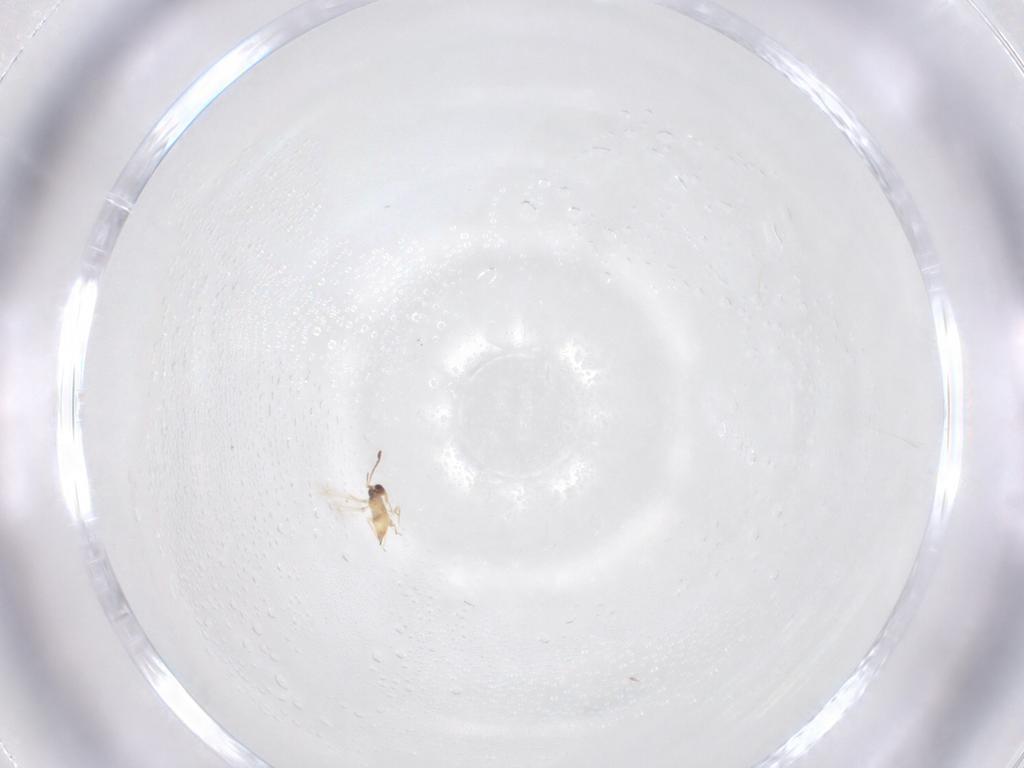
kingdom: Animalia
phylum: Arthropoda
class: Insecta
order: Hymenoptera
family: Mymaridae
